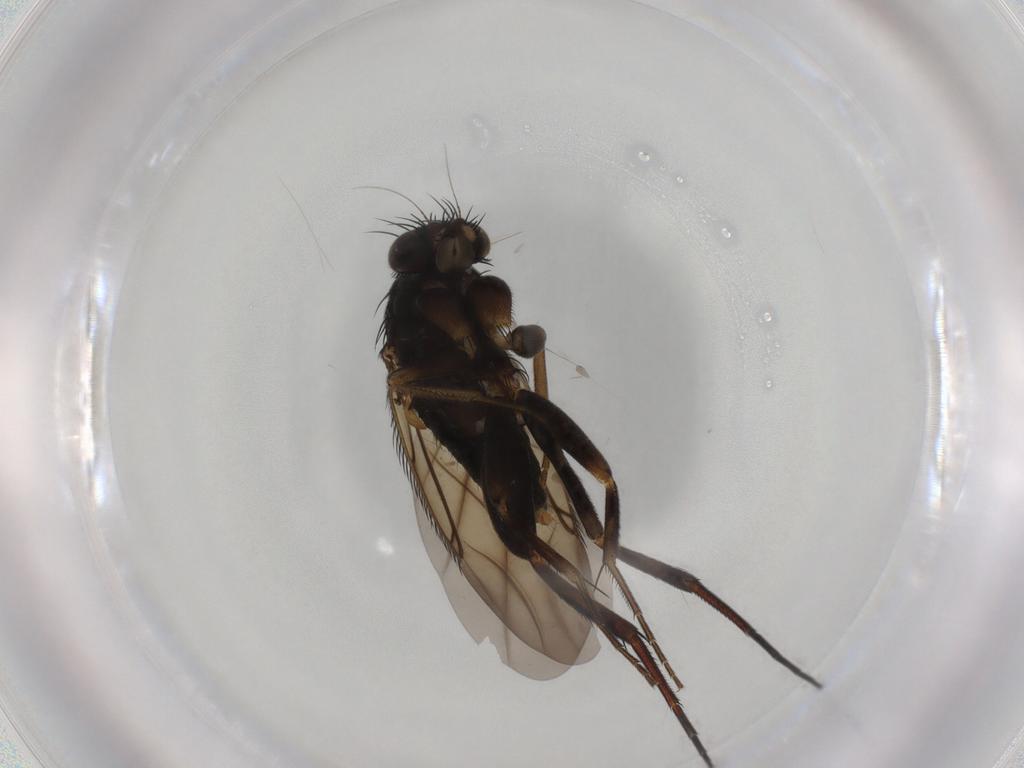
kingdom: Animalia
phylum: Arthropoda
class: Insecta
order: Diptera
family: Phoridae
